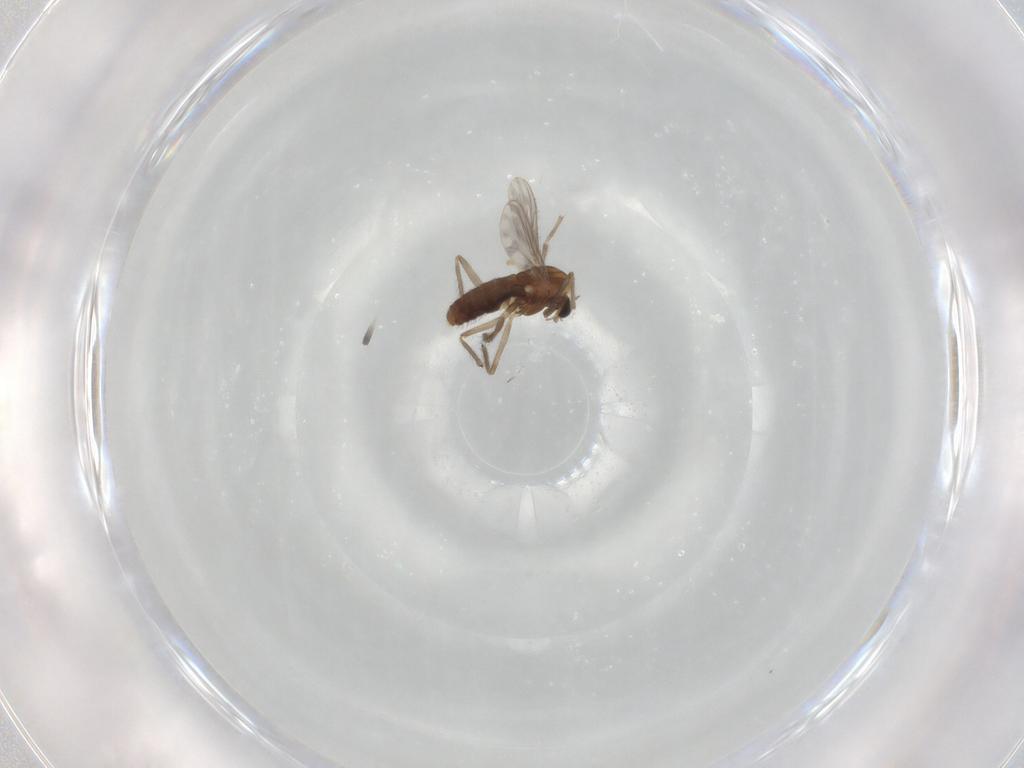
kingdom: Animalia
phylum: Arthropoda
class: Insecta
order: Diptera
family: Chironomidae
